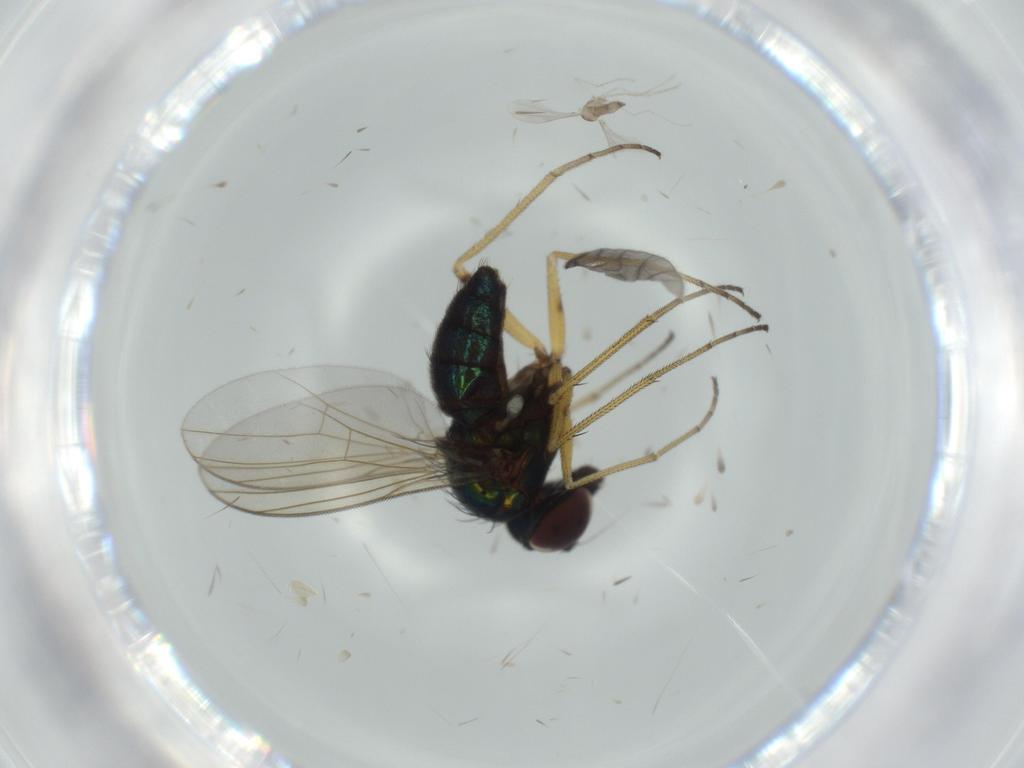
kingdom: Animalia
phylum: Arthropoda
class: Insecta
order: Diptera
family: Dolichopodidae
